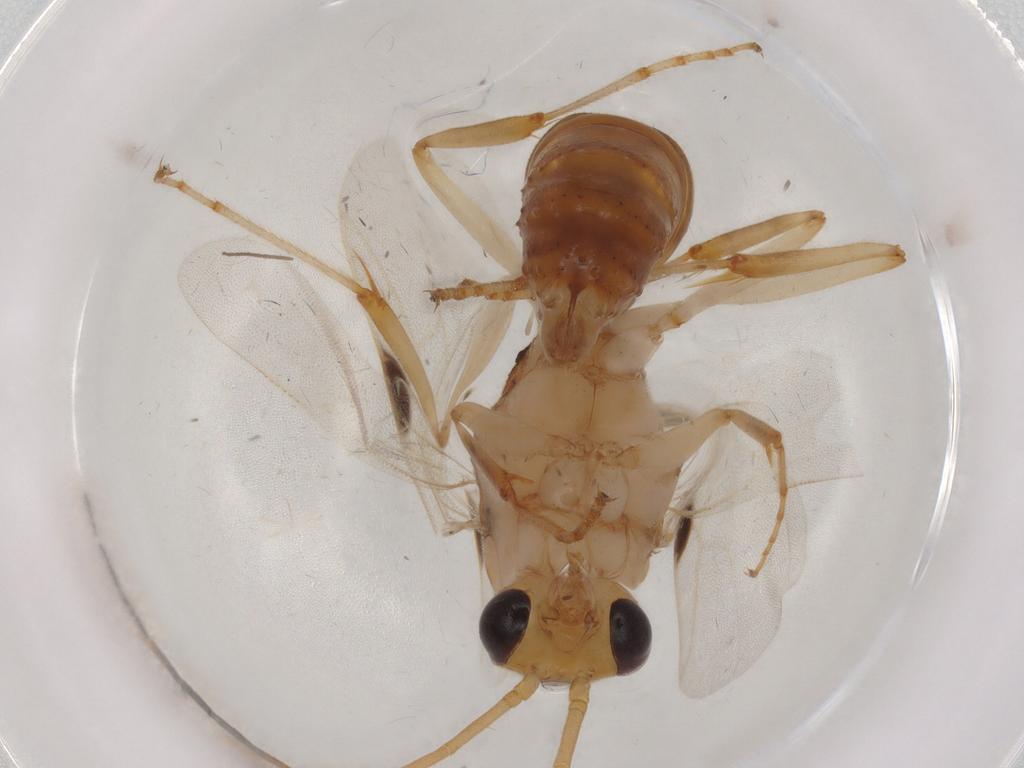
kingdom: Animalia
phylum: Arthropoda
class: Insecta
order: Hymenoptera
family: Formicidae
